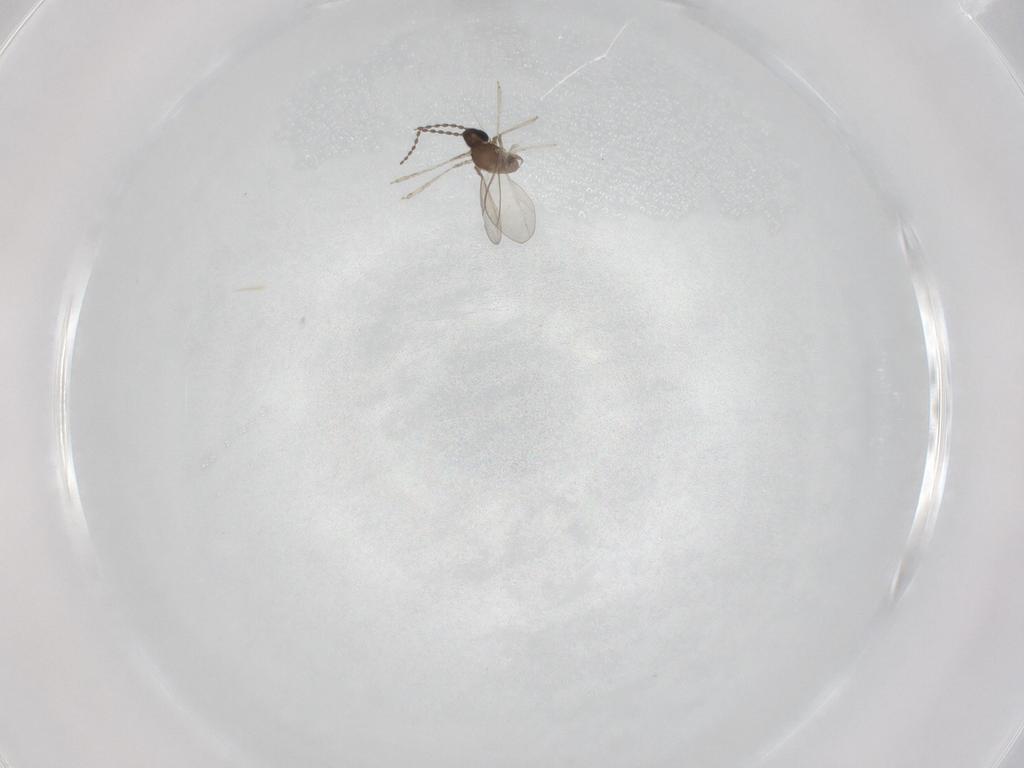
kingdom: Animalia
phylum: Arthropoda
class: Insecta
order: Diptera
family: Cecidomyiidae
